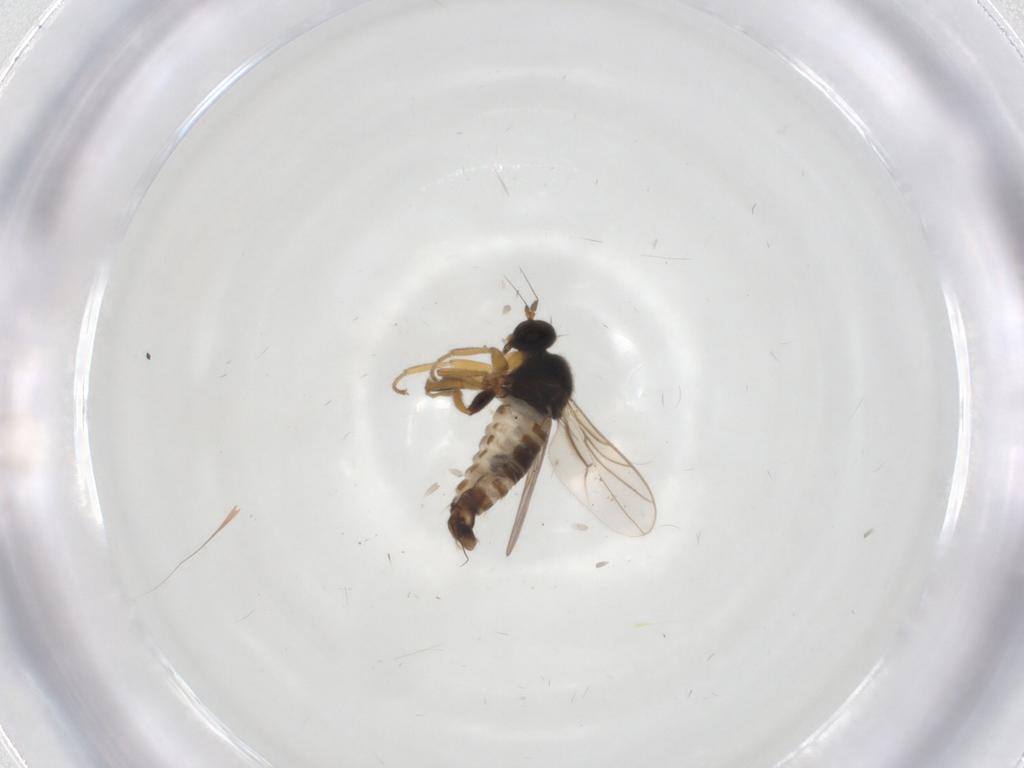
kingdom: Animalia
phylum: Arthropoda
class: Insecta
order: Diptera
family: Hybotidae
